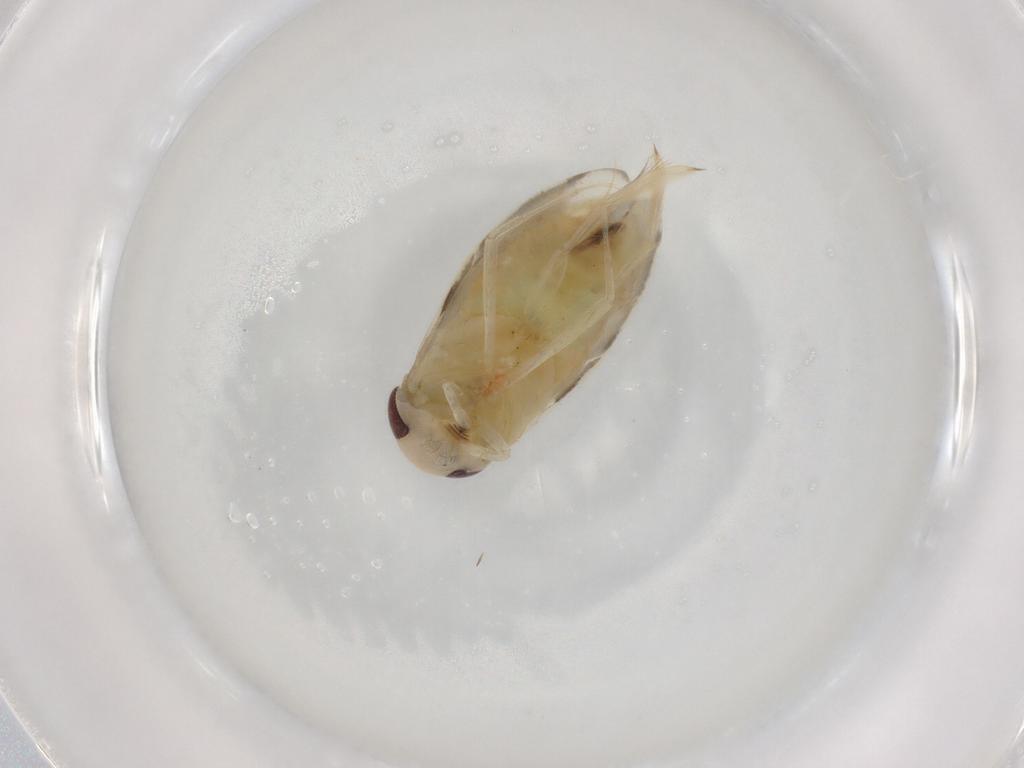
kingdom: Animalia
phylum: Arthropoda
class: Insecta
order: Hemiptera
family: Corixidae
